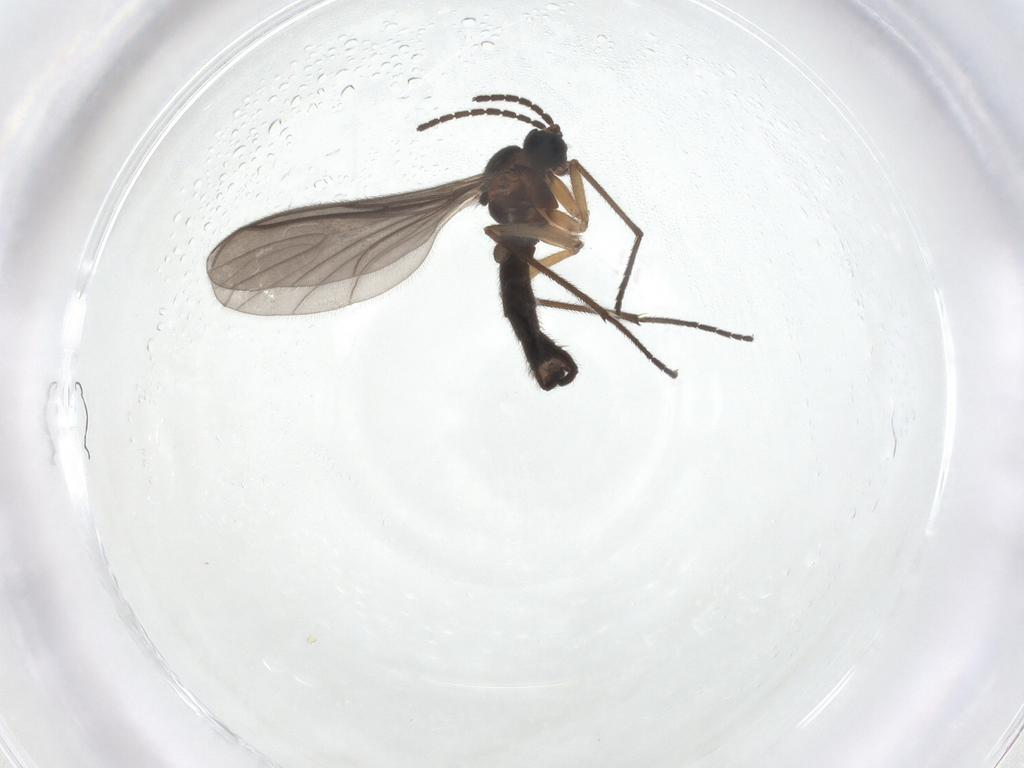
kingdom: Animalia
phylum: Arthropoda
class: Insecta
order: Diptera
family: Sciaridae
